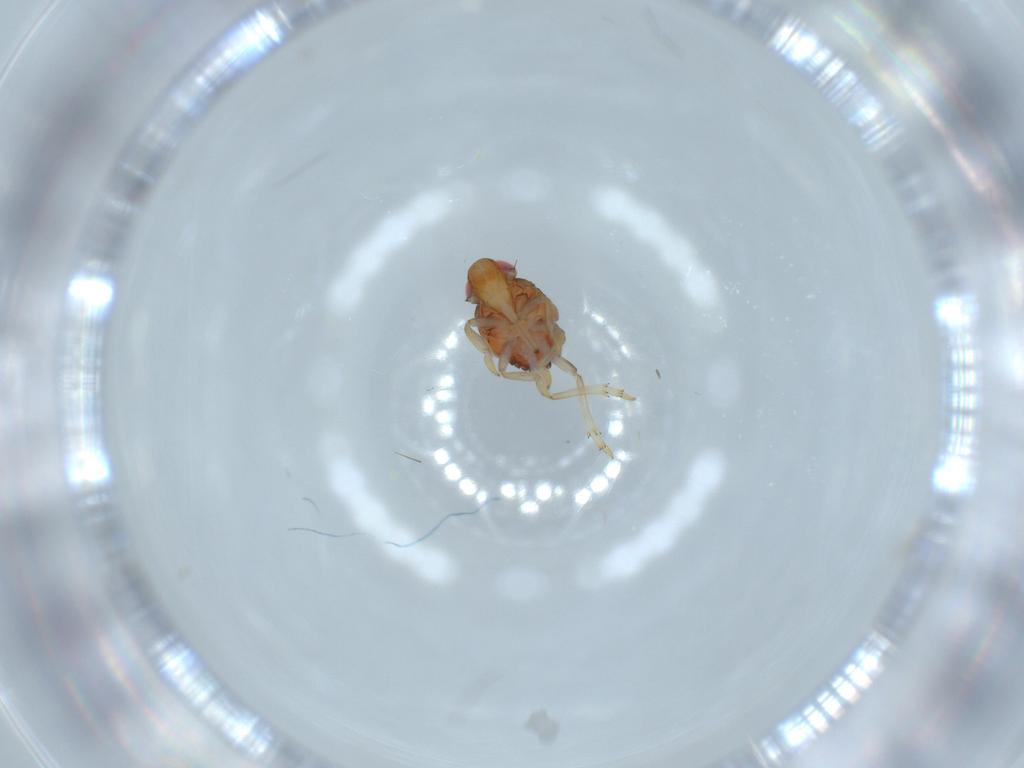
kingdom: Animalia
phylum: Arthropoda
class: Insecta
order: Hemiptera
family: Issidae
